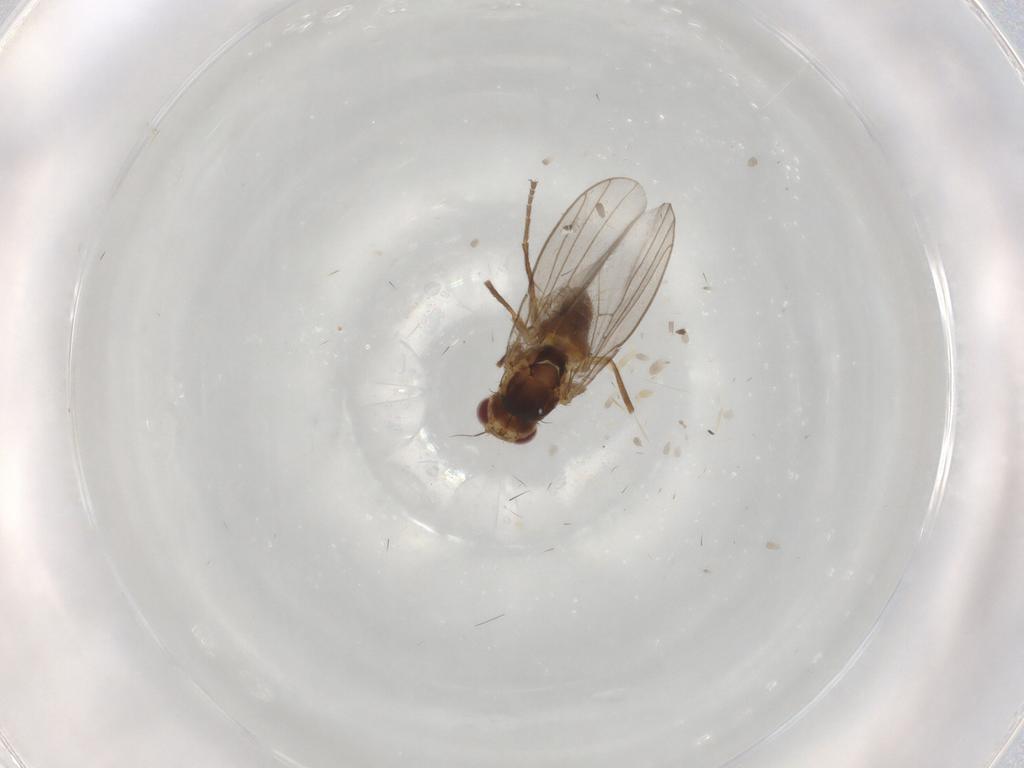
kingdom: Animalia
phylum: Arthropoda
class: Insecta
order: Diptera
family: Agromyzidae
